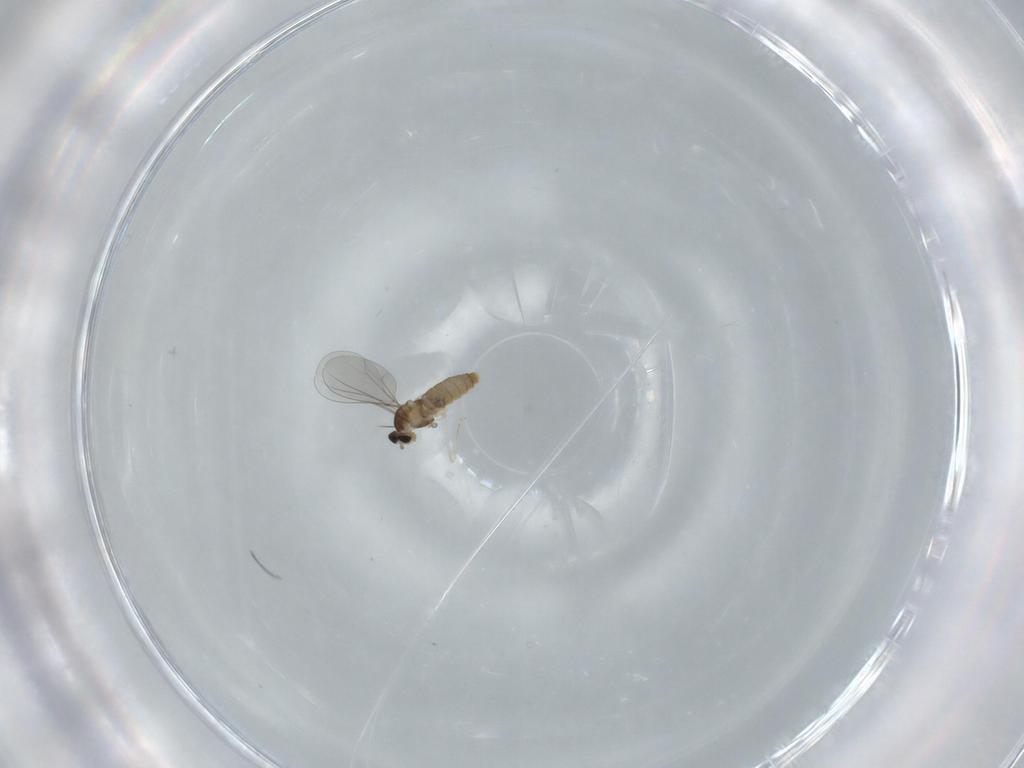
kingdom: Animalia
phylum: Arthropoda
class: Insecta
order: Diptera
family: Cecidomyiidae
